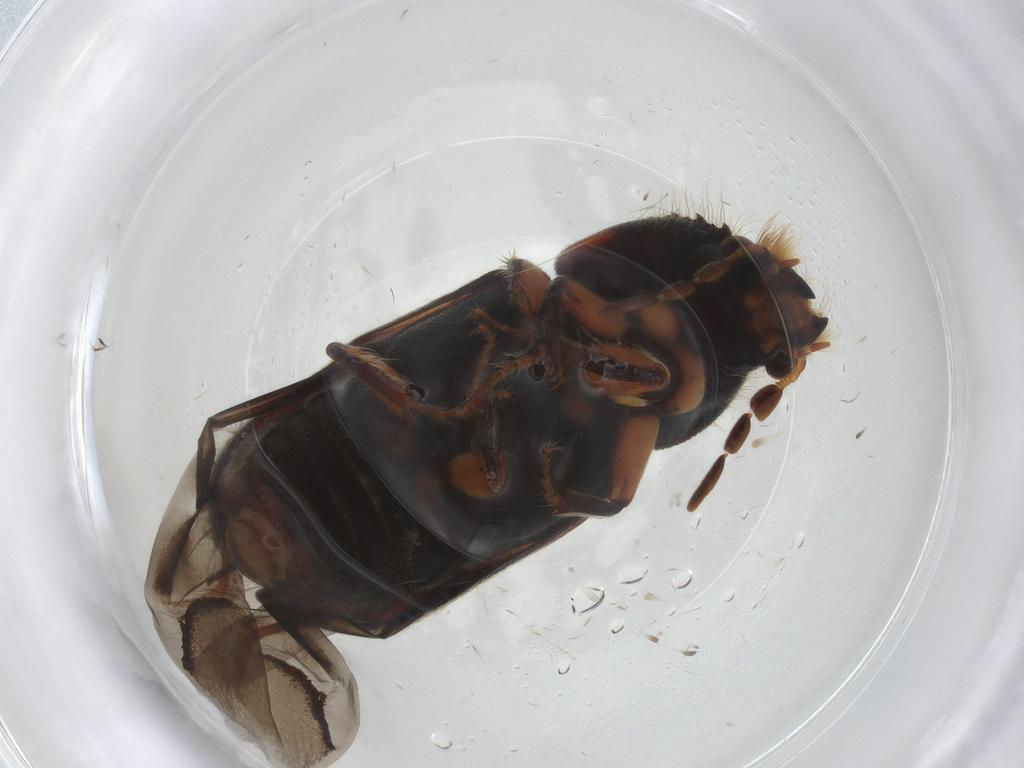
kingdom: Animalia
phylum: Arthropoda
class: Insecta
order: Coleoptera
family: Bostrichidae
